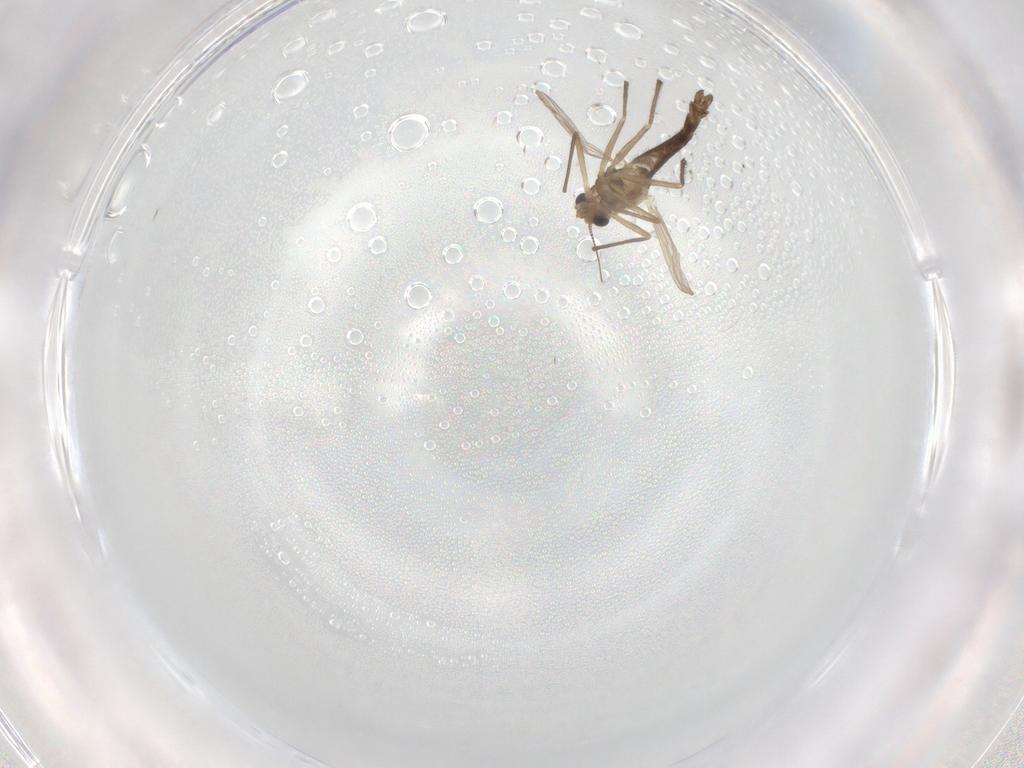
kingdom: Animalia
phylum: Arthropoda
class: Insecta
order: Diptera
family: Chironomidae
